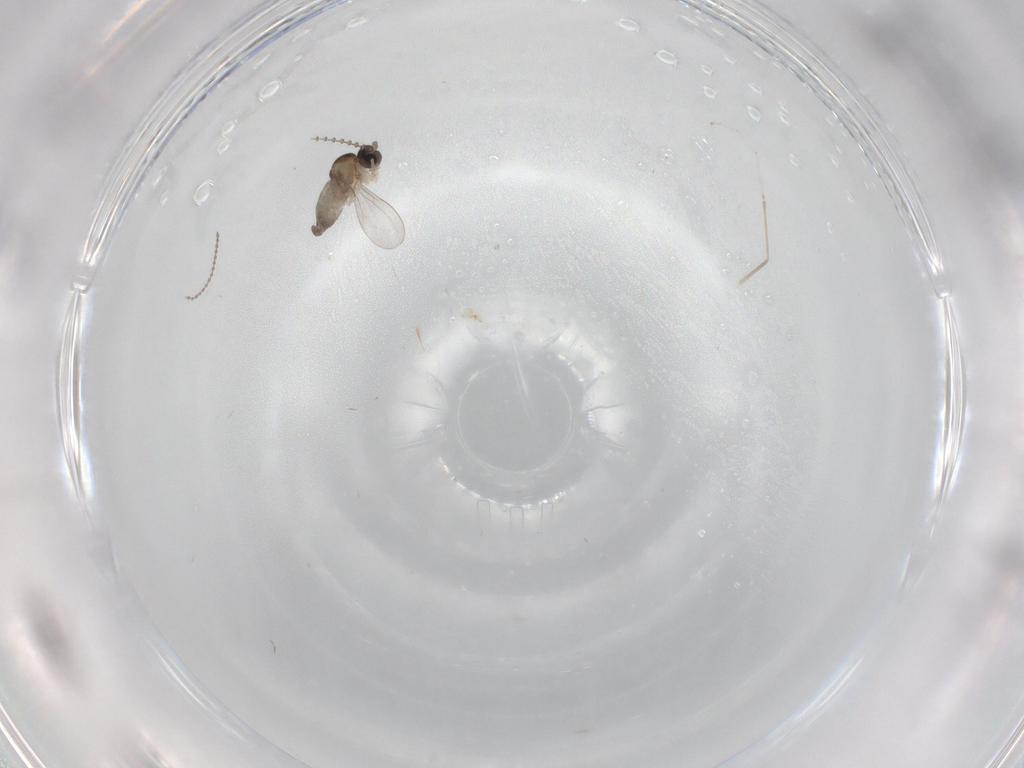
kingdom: Animalia
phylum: Arthropoda
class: Insecta
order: Diptera
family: Cecidomyiidae
